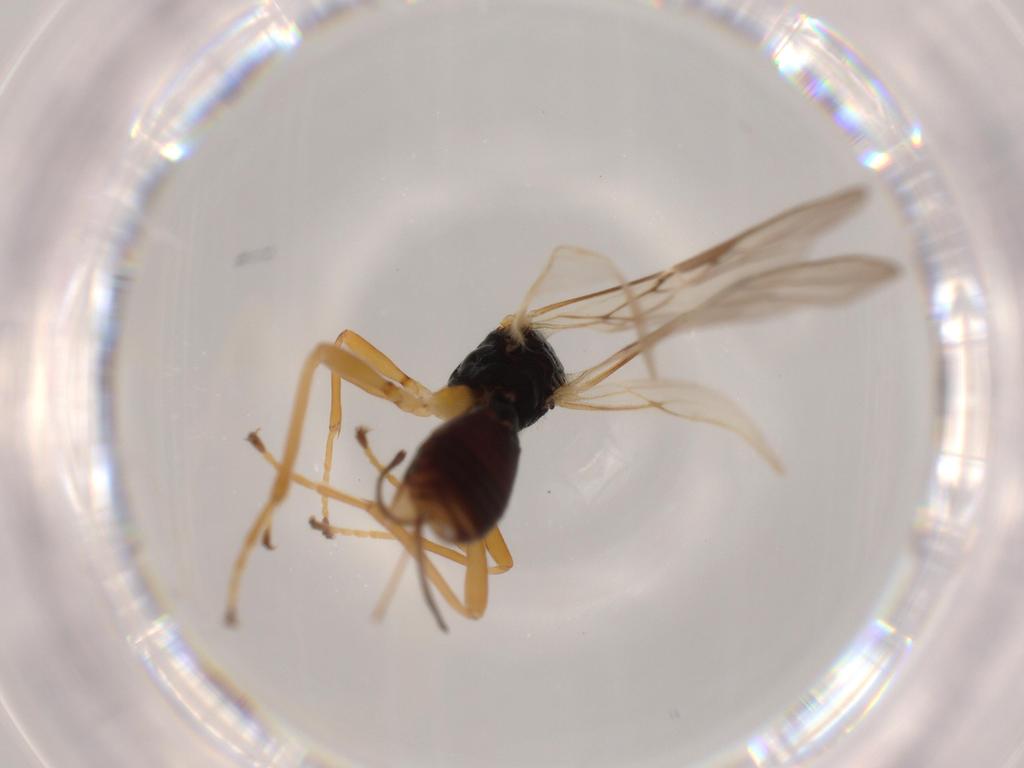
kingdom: Animalia
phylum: Arthropoda
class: Insecta
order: Hymenoptera
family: Braconidae
